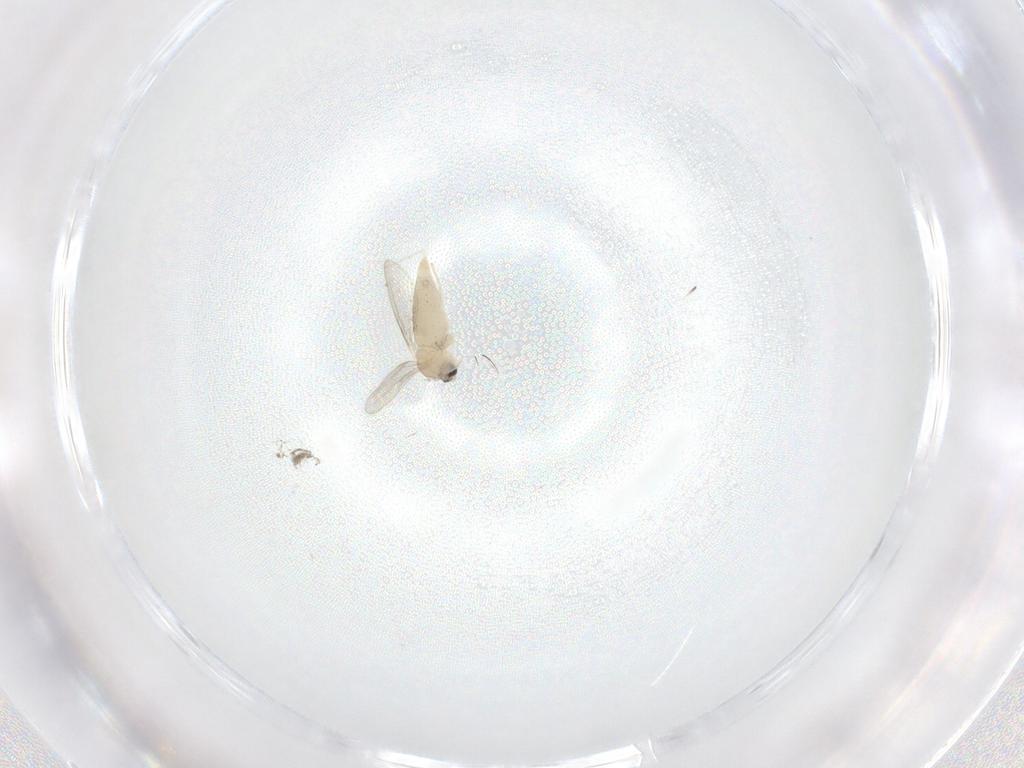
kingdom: Animalia
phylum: Arthropoda
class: Insecta
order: Diptera
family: Cecidomyiidae
